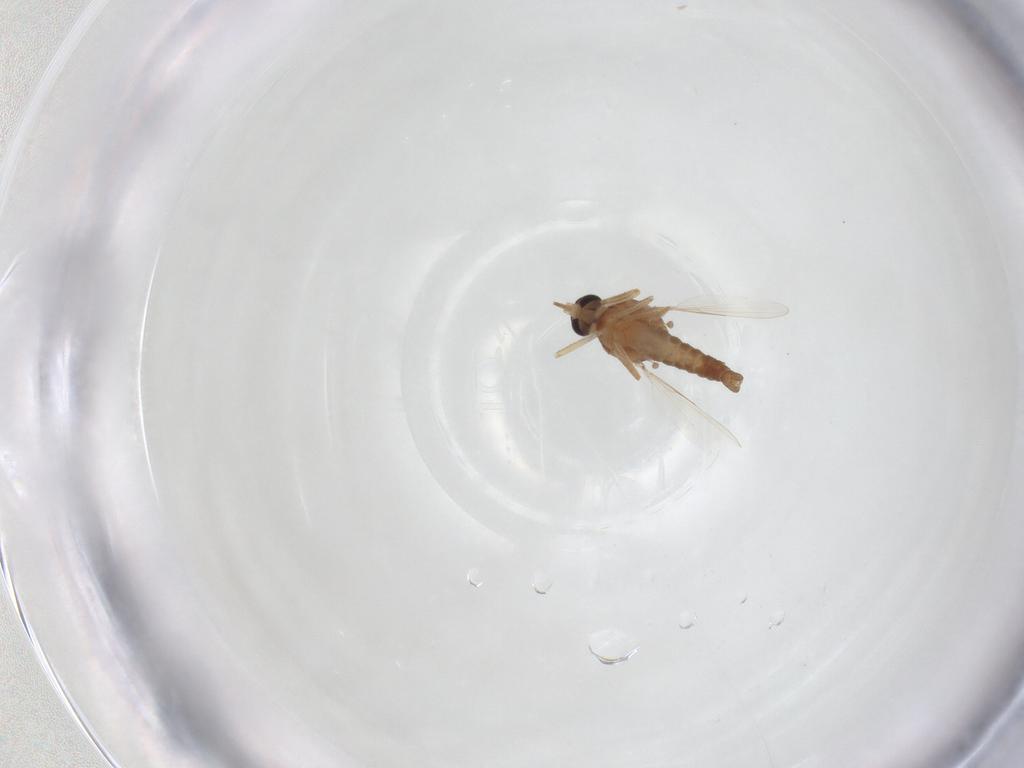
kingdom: Animalia
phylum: Arthropoda
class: Insecta
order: Diptera
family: Ceratopogonidae
